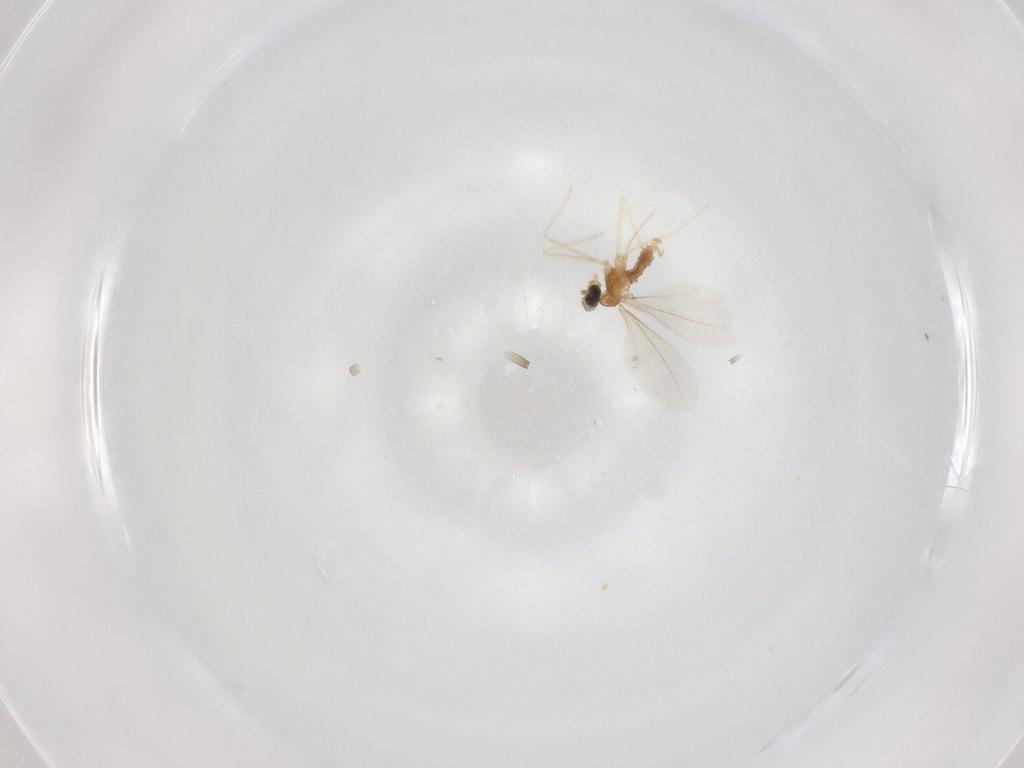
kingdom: Animalia
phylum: Arthropoda
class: Insecta
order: Diptera
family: Cecidomyiidae
